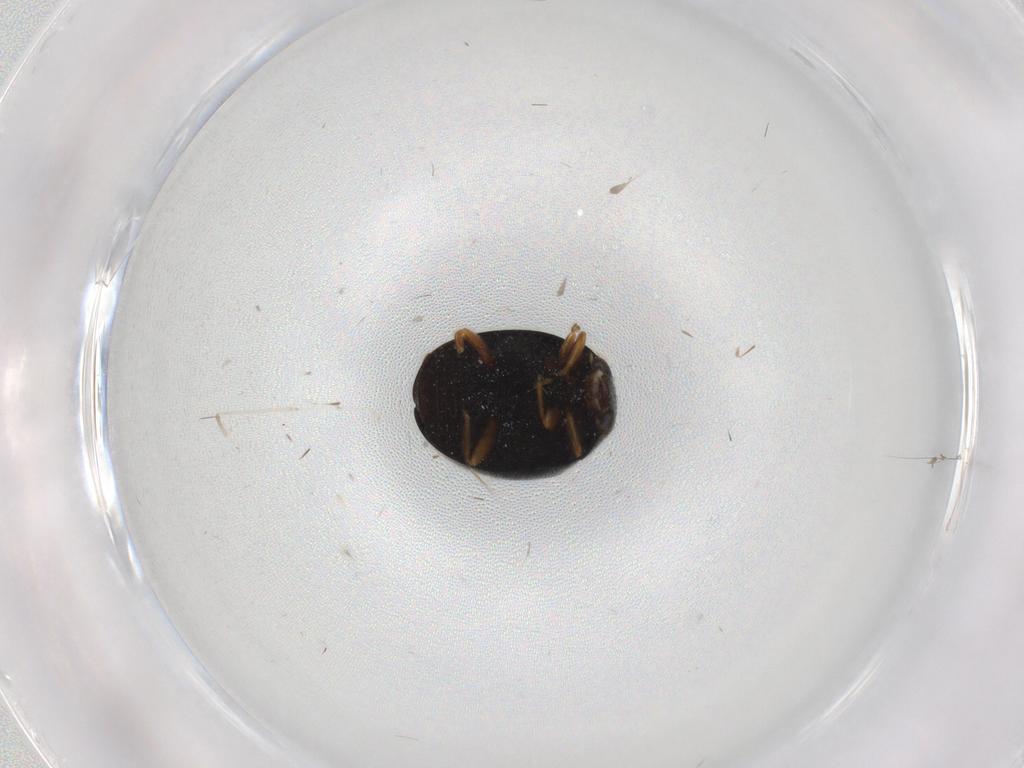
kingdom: Animalia
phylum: Arthropoda
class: Insecta
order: Coleoptera
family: Coccinellidae
